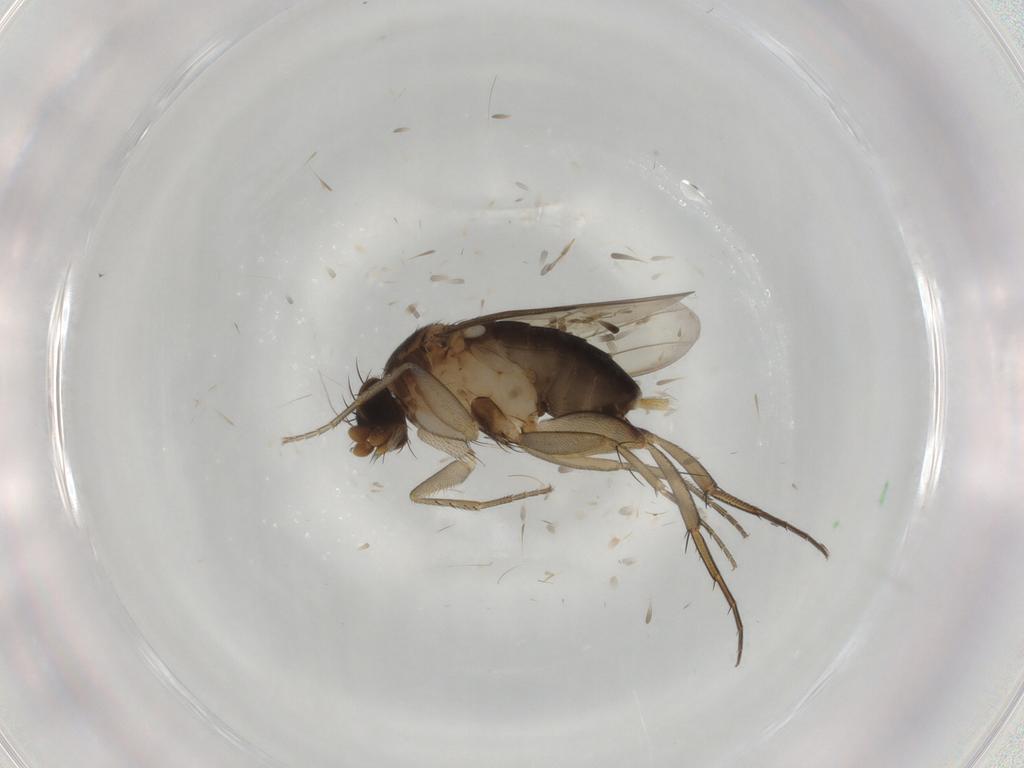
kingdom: Animalia
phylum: Arthropoda
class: Insecta
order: Diptera
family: Phoridae
